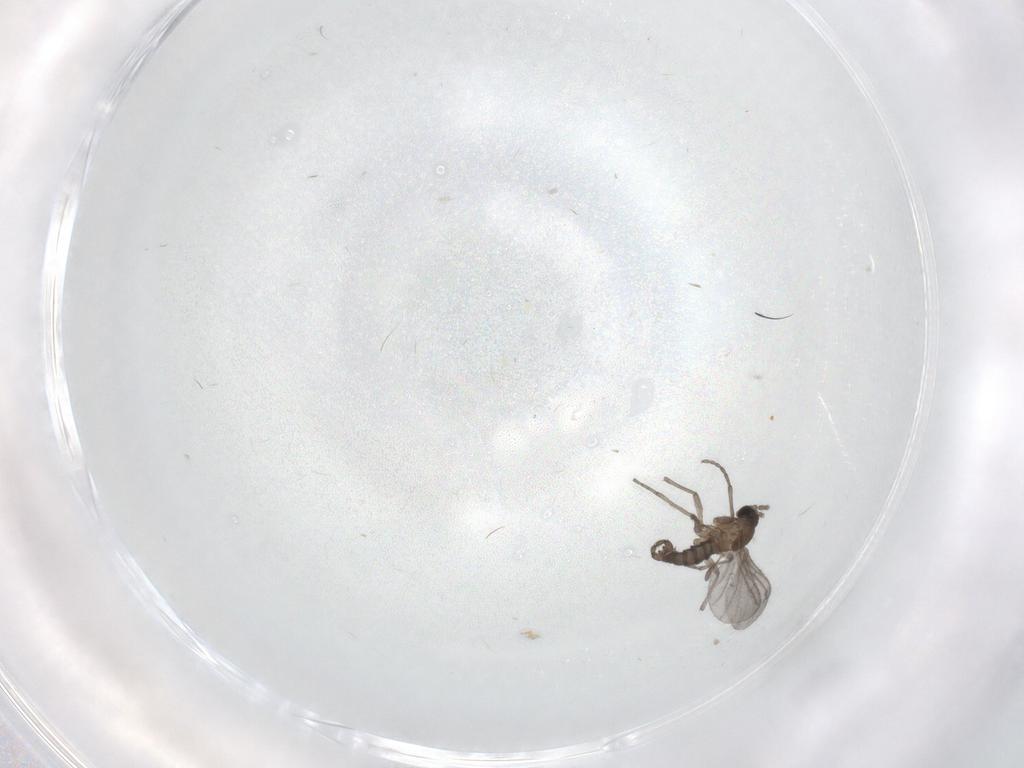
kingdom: Animalia
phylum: Arthropoda
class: Insecta
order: Diptera
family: Sciaridae
